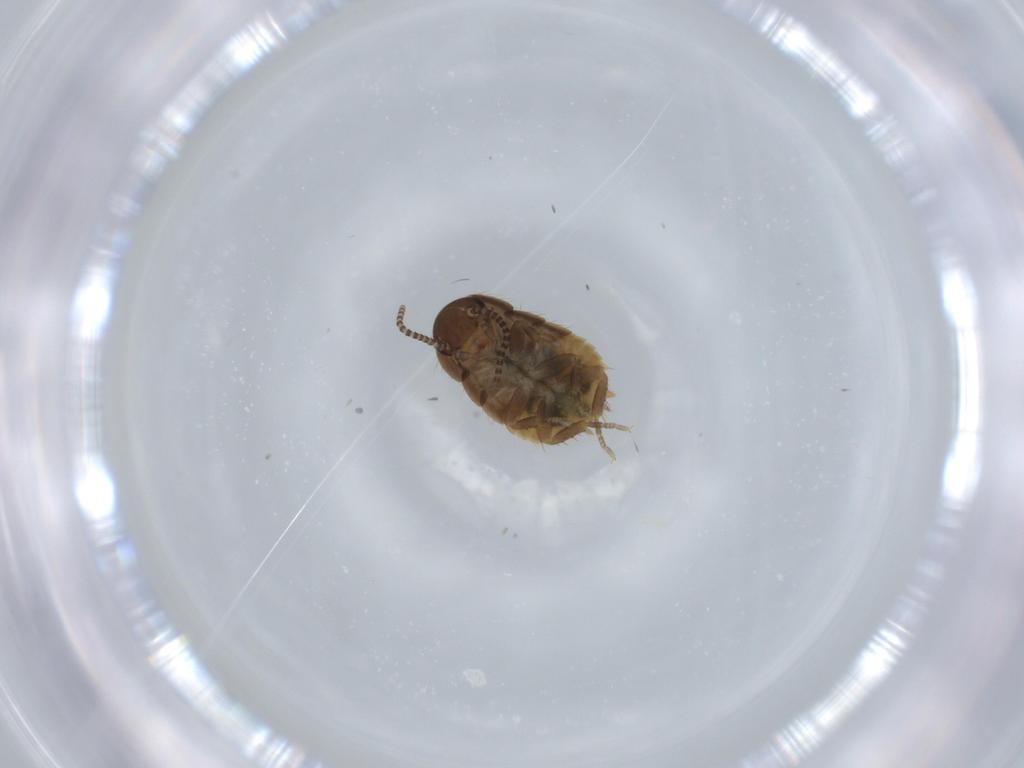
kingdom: Animalia
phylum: Arthropoda
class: Insecta
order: Blattodea
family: Blaberidae
